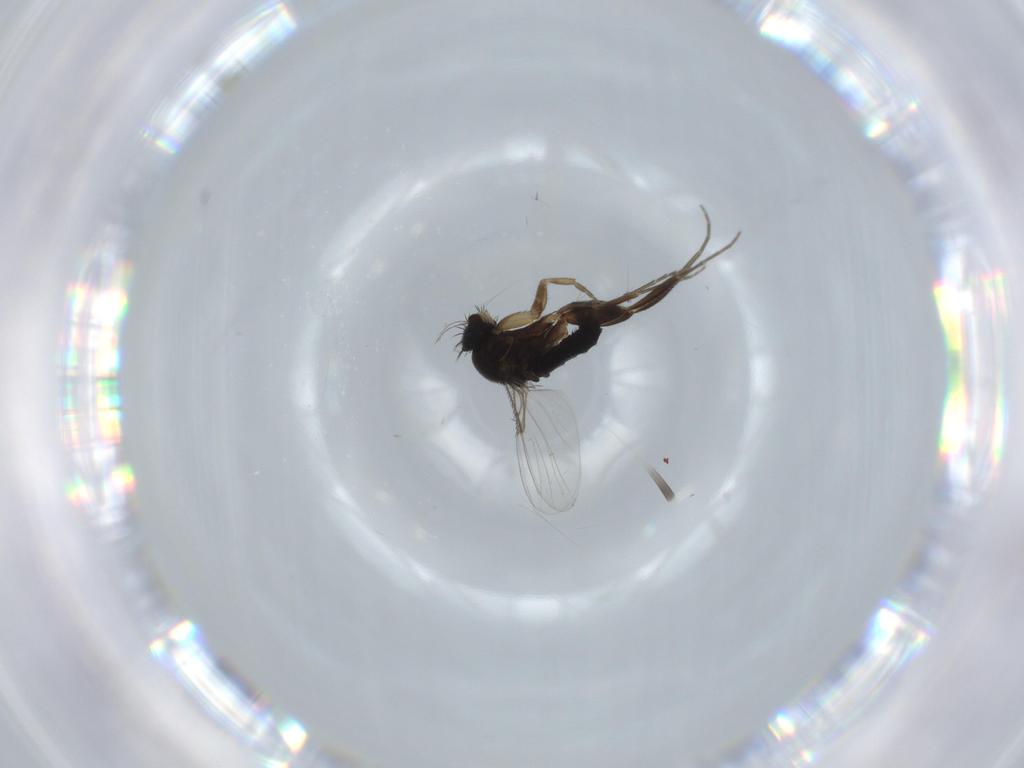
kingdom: Animalia
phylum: Arthropoda
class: Insecta
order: Diptera
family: Phoridae
